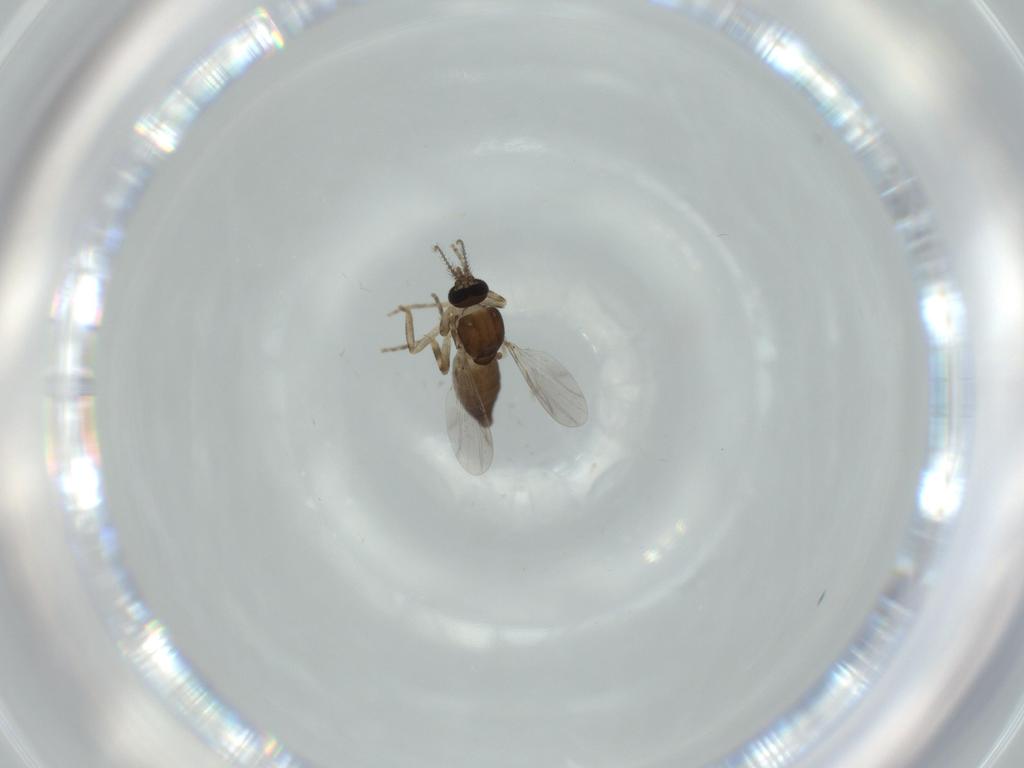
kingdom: Animalia
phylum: Arthropoda
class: Insecta
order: Diptera
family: Ceratopogonidae
